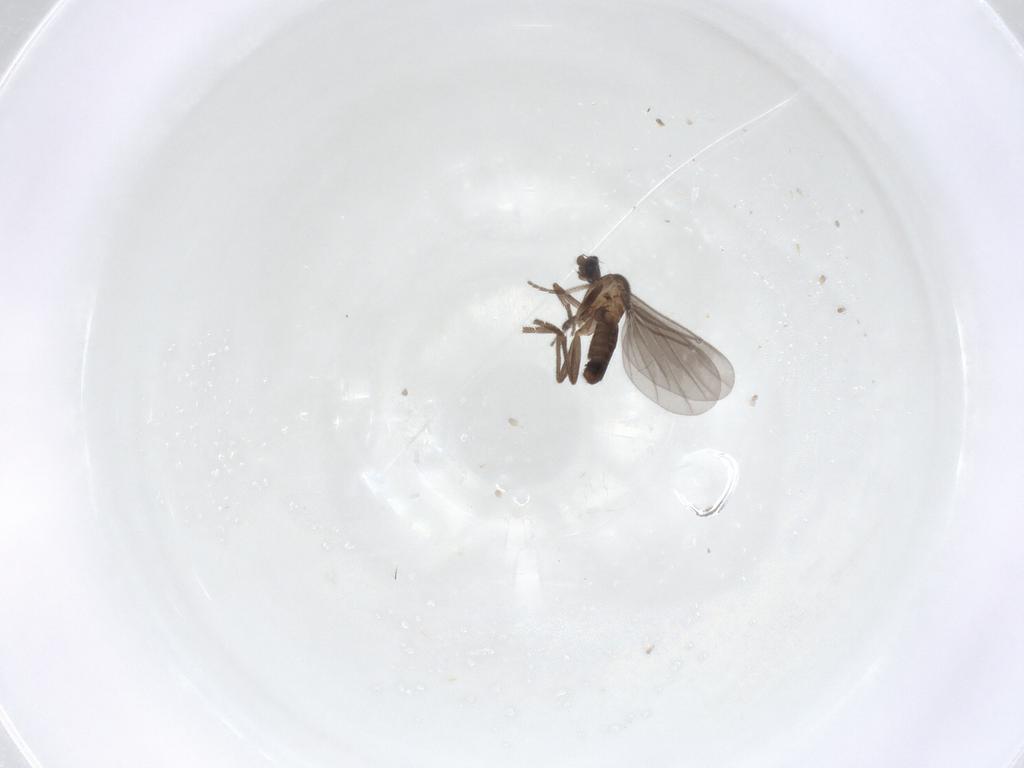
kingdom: Animalia
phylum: Arthropoda
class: Insecta
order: Diptera
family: Phoridae
